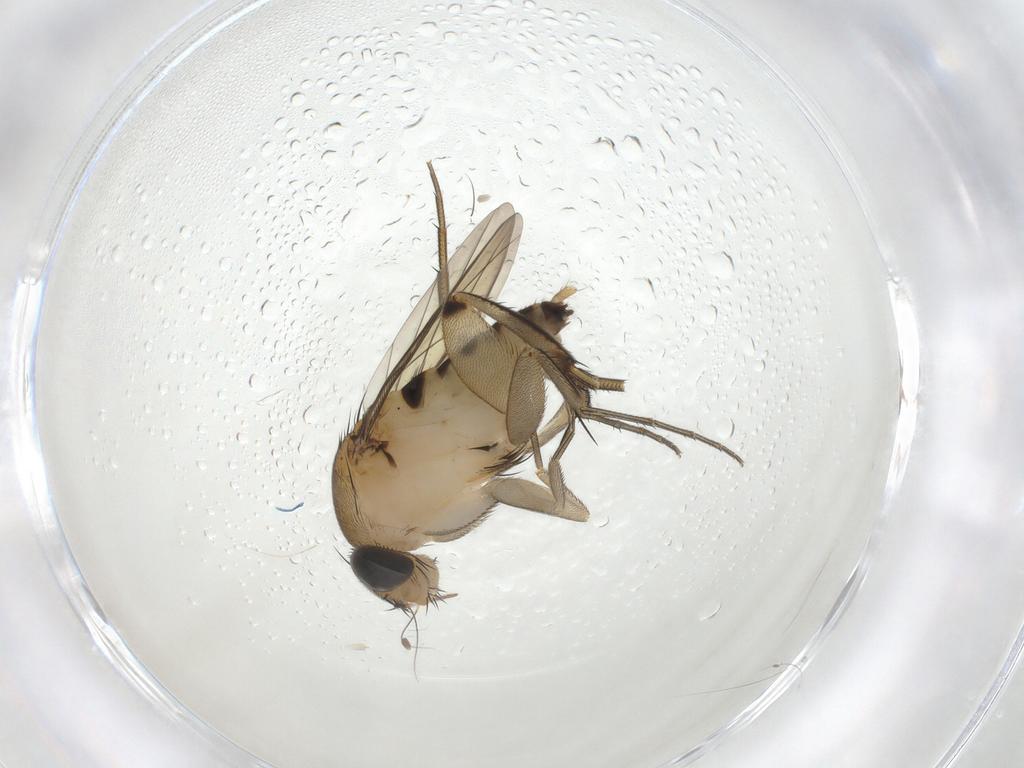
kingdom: Animalia
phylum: Arthropoda
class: Insecta
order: Diptera
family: Phoridae
